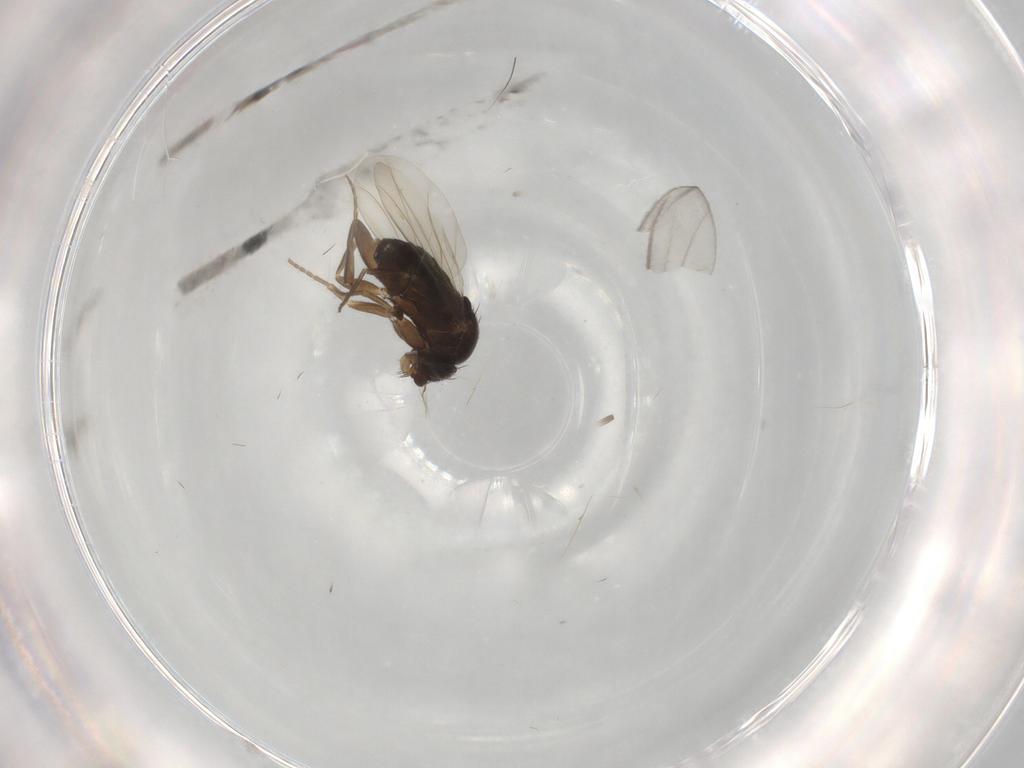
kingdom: Animalia
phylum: Arthropoda
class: Insecta
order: Diptera
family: Phoridae
